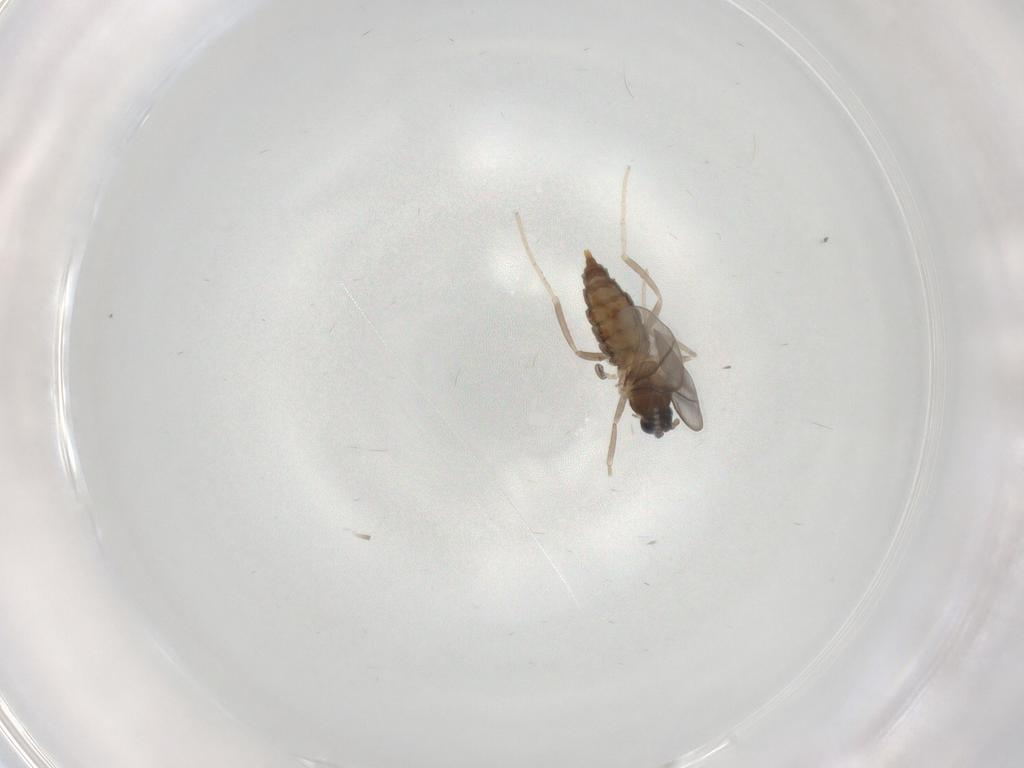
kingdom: Animalia
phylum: Arthropoda
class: Insecta
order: Diptera
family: Cecidomyiidae
